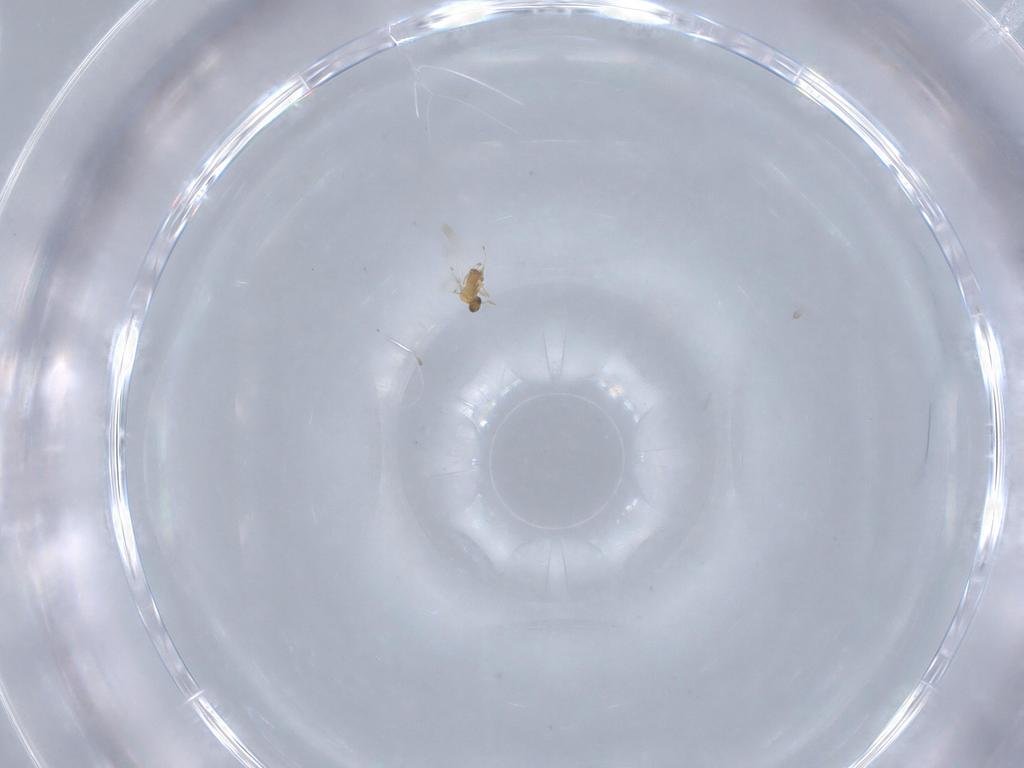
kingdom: Animalia
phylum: Arthropoda
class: Insecta
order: Hymenoptera
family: Trichogrammatidae
